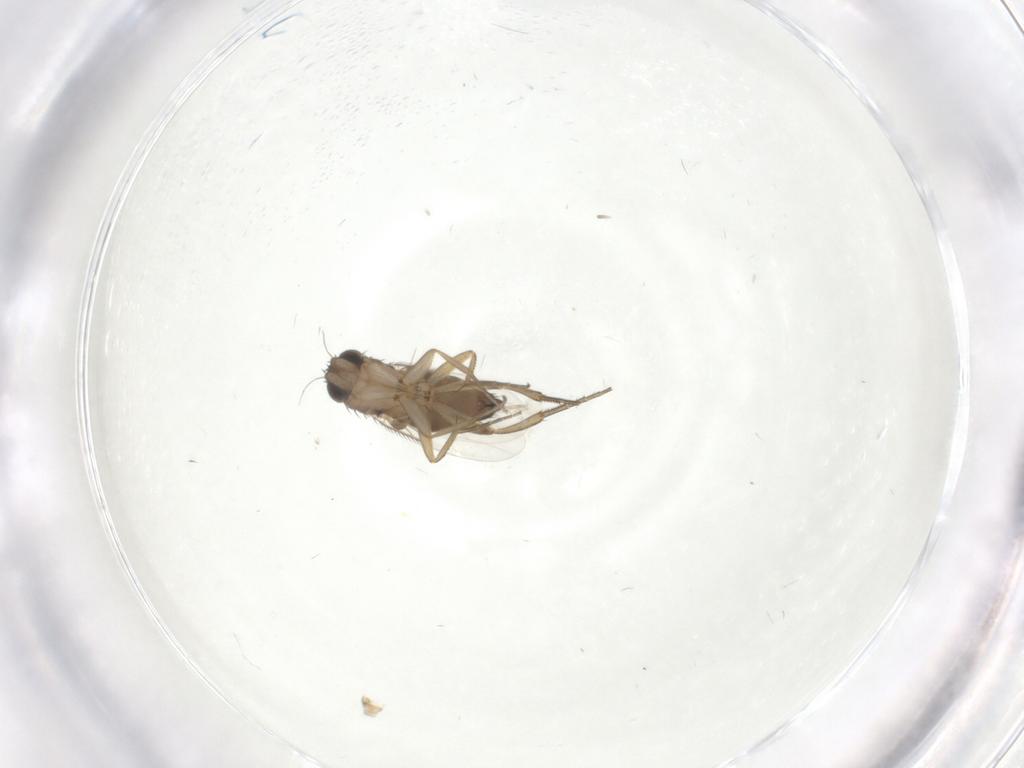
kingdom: Animalia
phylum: Arthropoda
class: Insecta
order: Diptera
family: Phoridae
